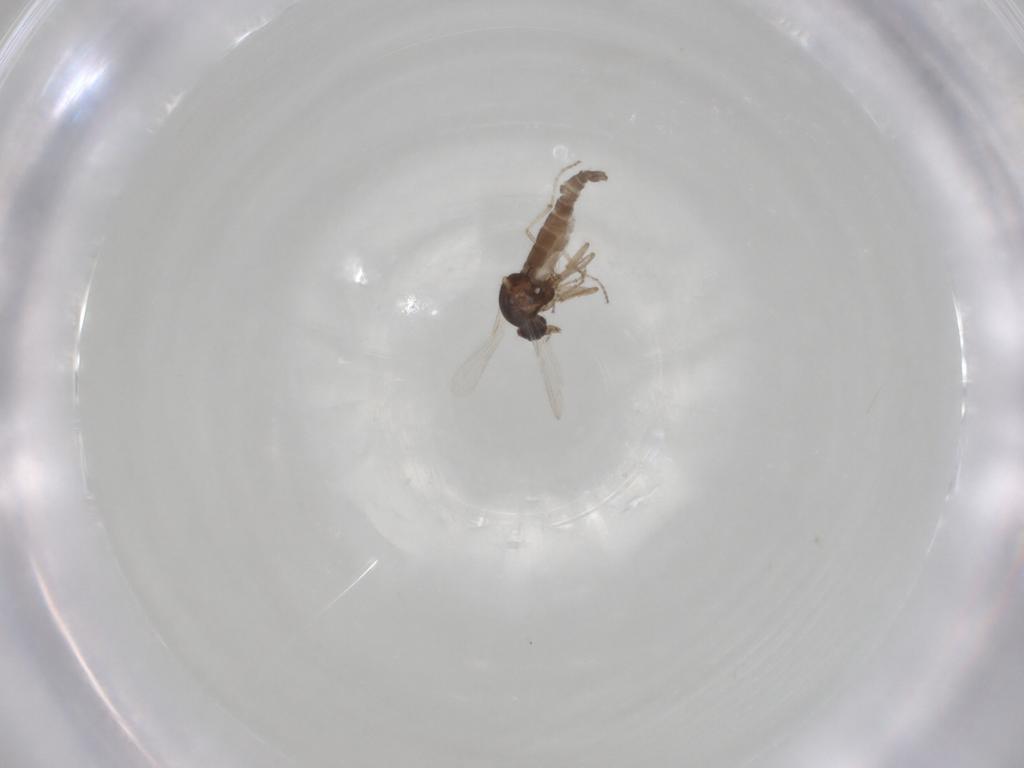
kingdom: Animalia
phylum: Arthropoda
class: Insecta
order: Diptera
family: Ceratopogonidae
